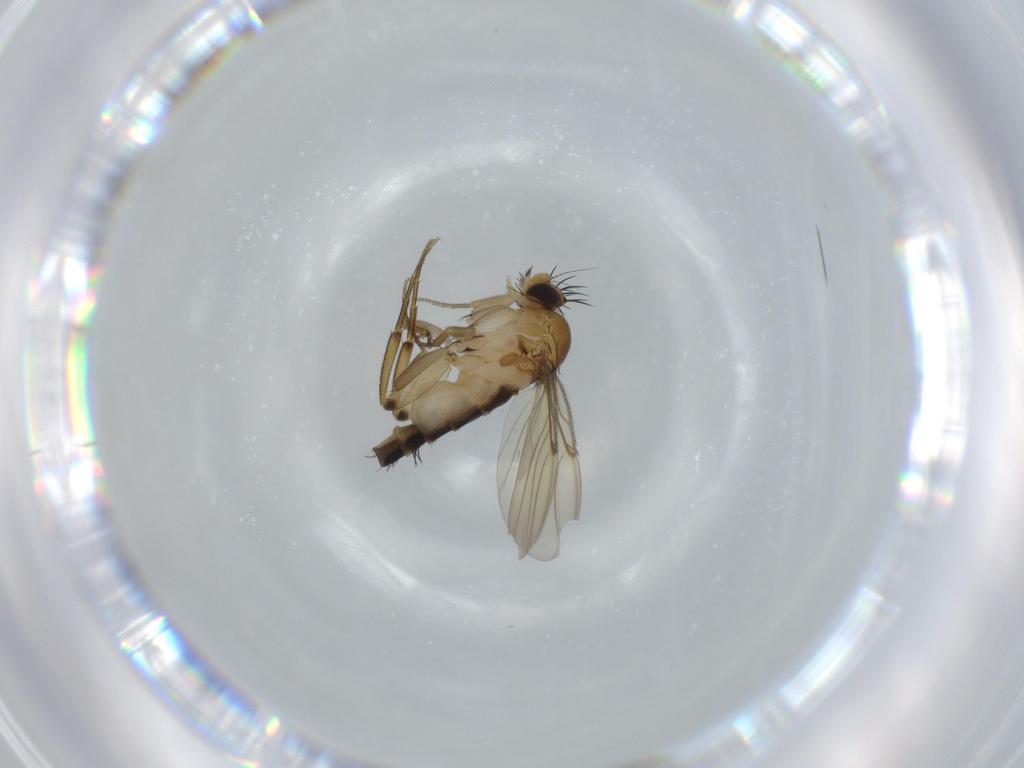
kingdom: Animalia
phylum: Arthropoda
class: Insecta
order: Diptera
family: Phoridae
